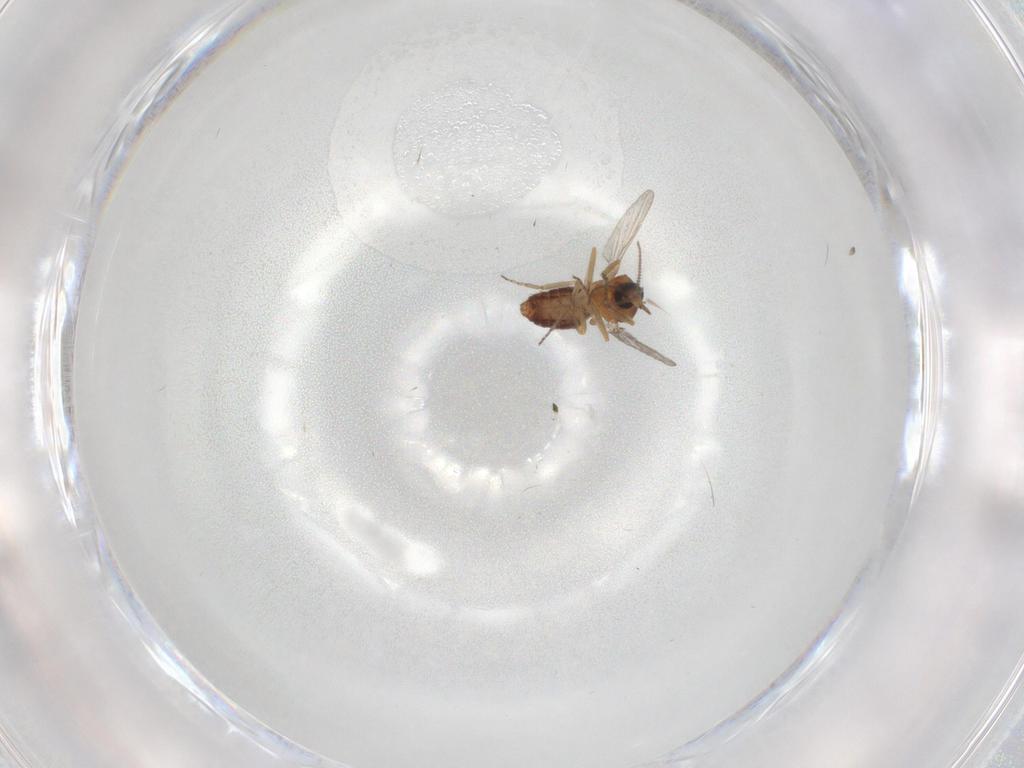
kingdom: Animalia
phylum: Arthropoda
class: Insecta
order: Diptera
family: Ceratopogonidae
